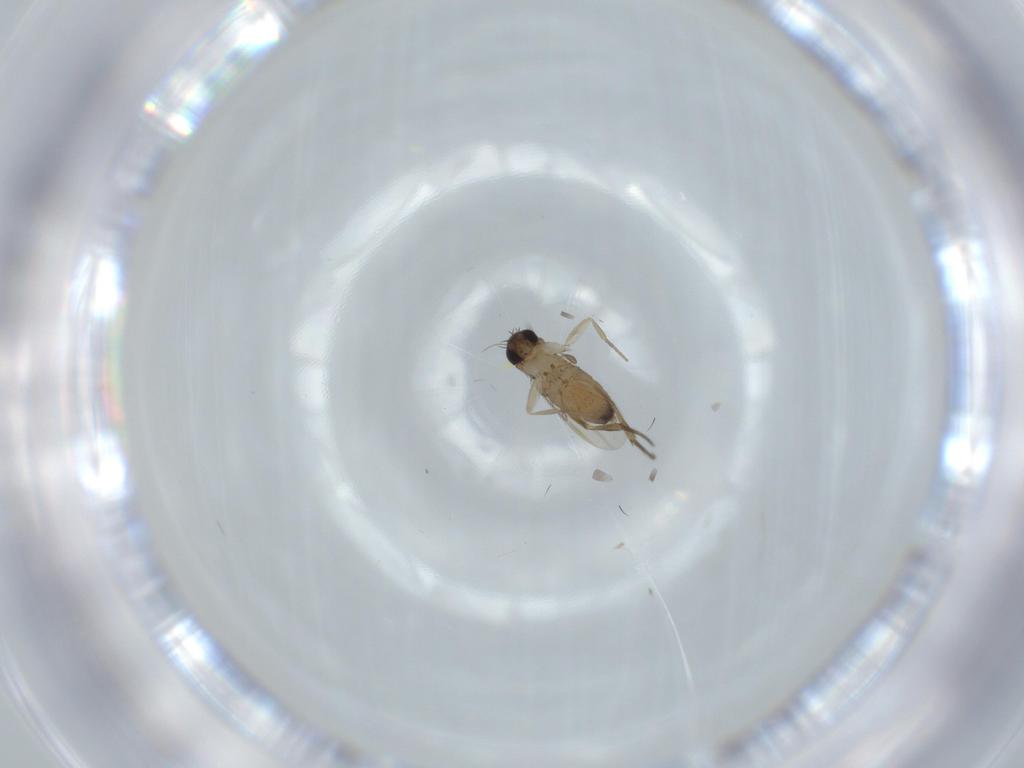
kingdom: Animalia
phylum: Arthropoda
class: Insecta
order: Diptera
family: Phoridae
